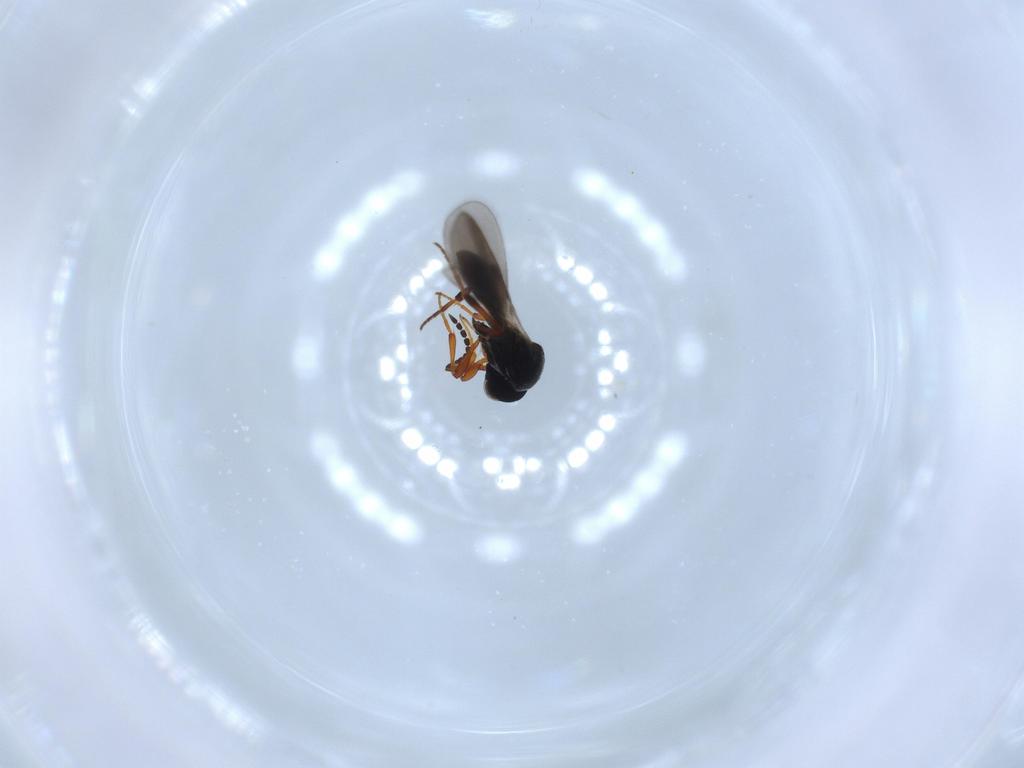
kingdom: Animalia
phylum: Arthropoda
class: Insecta
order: Hymenoptera
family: Platygastridae
